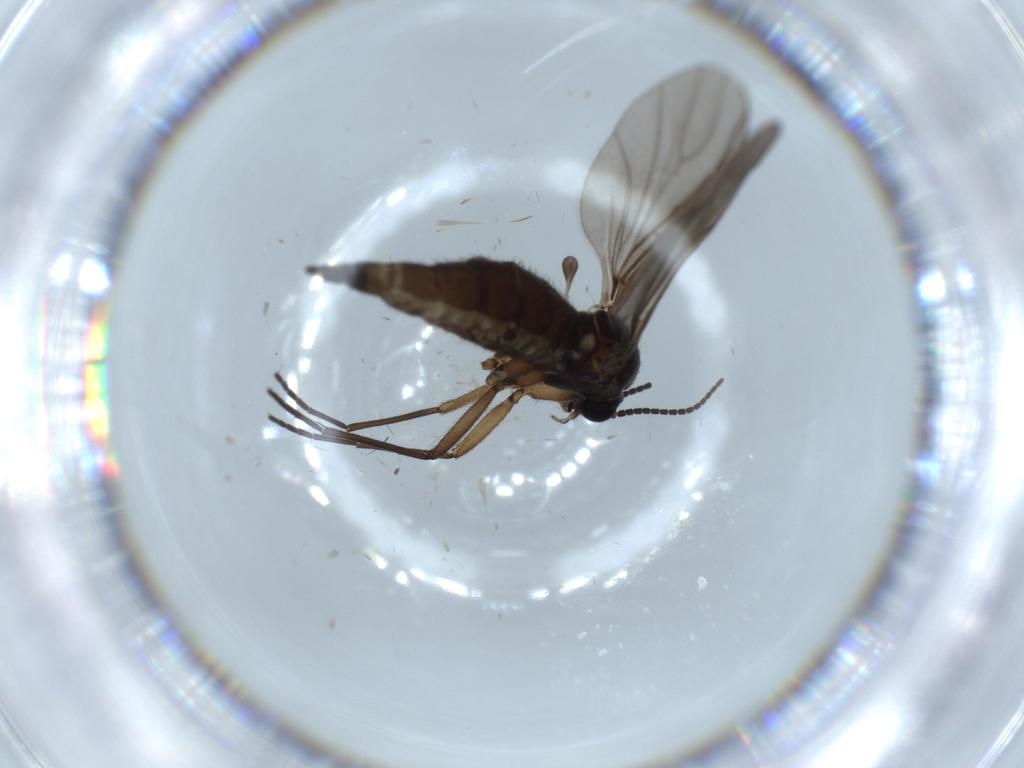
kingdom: Animalia
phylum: Arthropoda
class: Insecta
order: Diptera
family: Sciaridae
